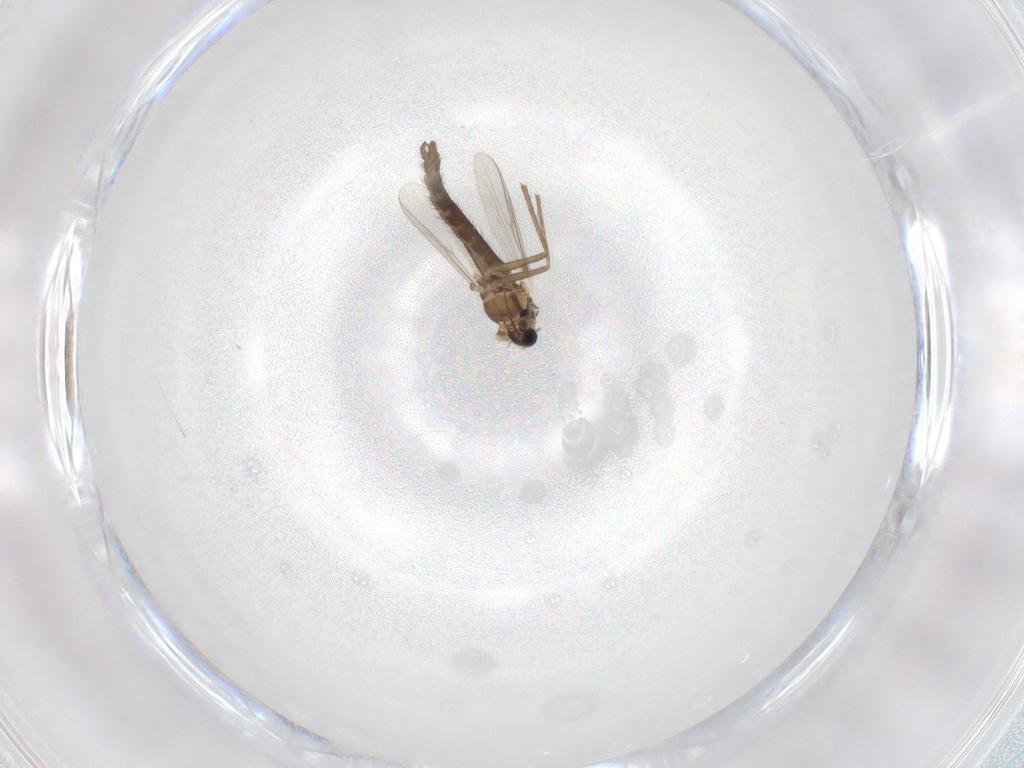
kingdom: Animalia
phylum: Arthropoda
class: Insecta
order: Diptera
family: Chironomidae
